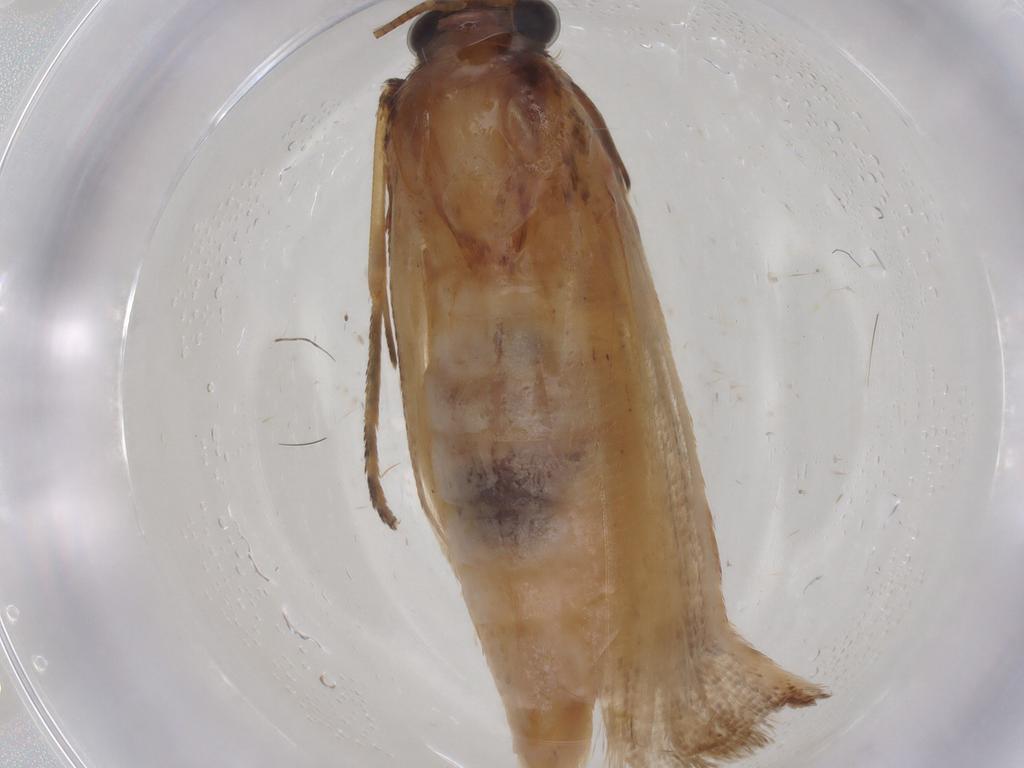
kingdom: Animalia
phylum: Arthropoda
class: Insecta
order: Lepidoptera
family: Pyralidae
